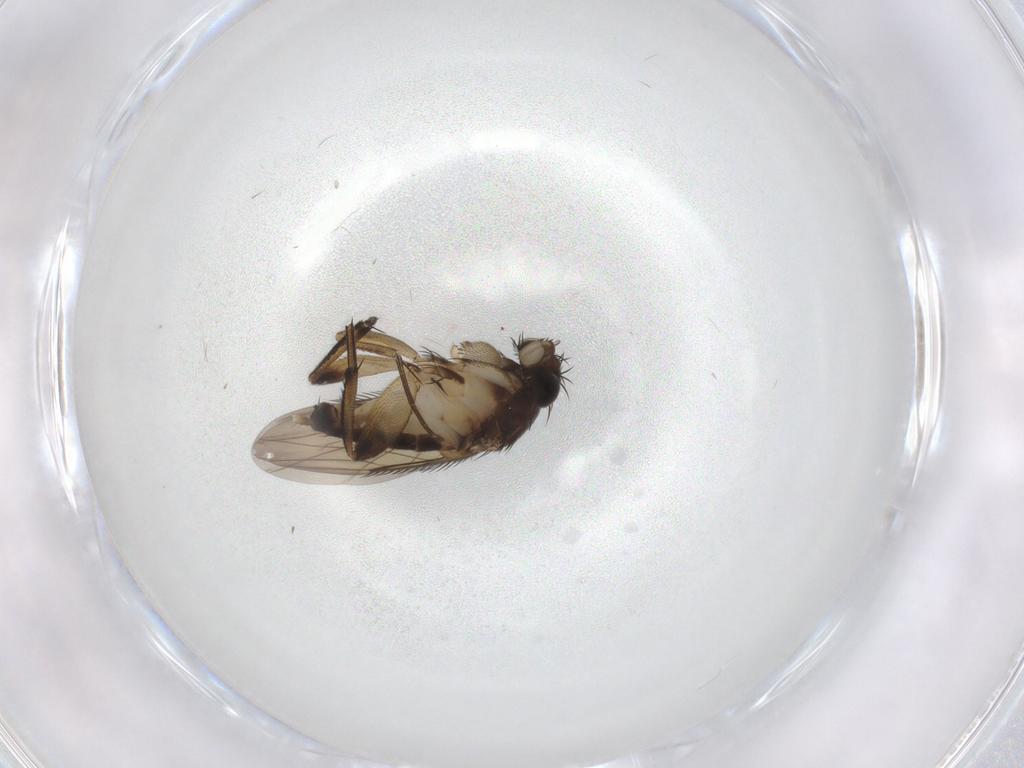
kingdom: Animalia
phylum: Arthropoda
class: Insecta
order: Diptera
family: Phoridae
